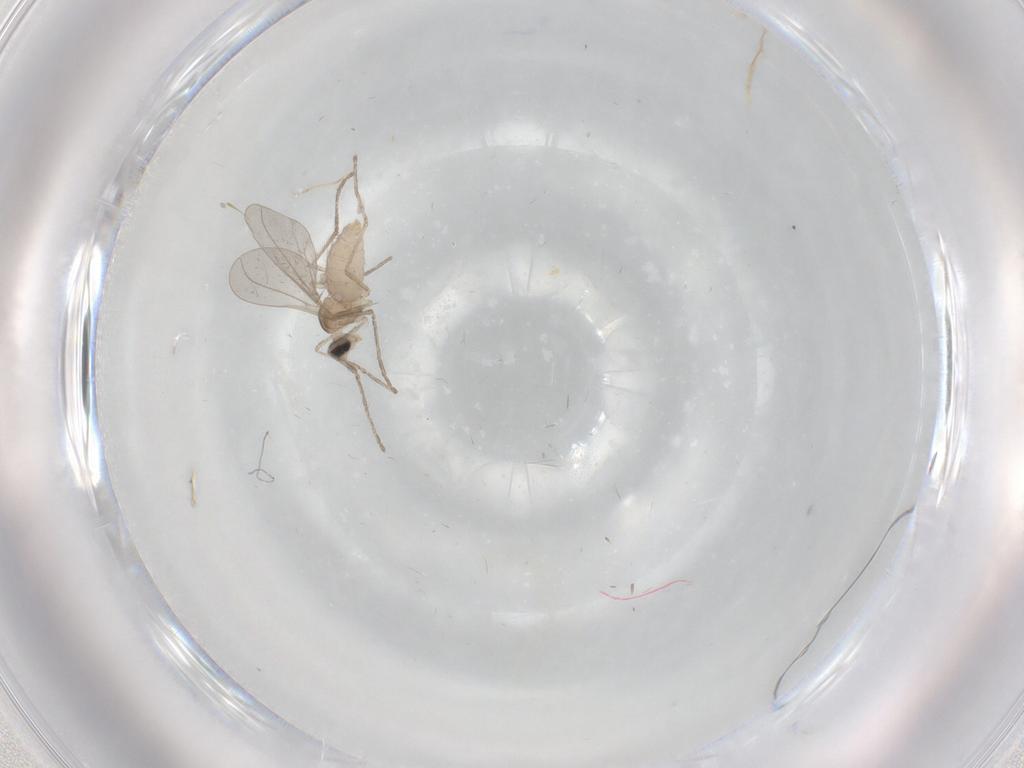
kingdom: Animalia
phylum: Arthropoda
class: Insecta
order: Diptera
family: Cecidomyiidae
